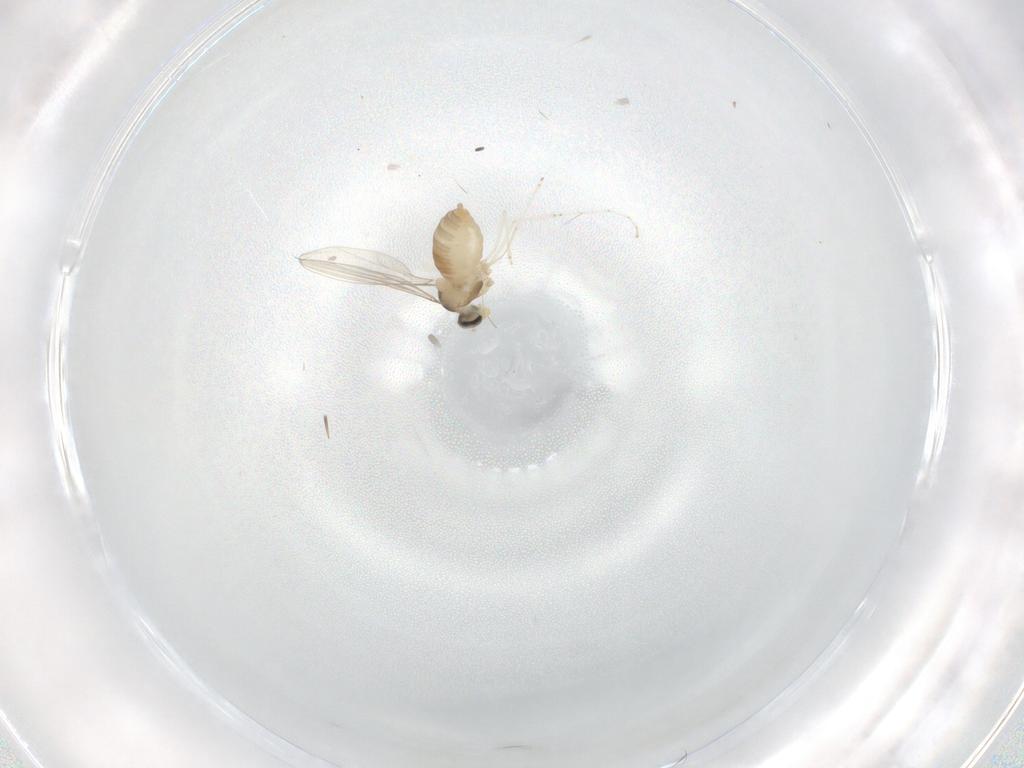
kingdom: Animalia
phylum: Arthropoda
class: Insecta
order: Diptera
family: Cecidomyiidae
